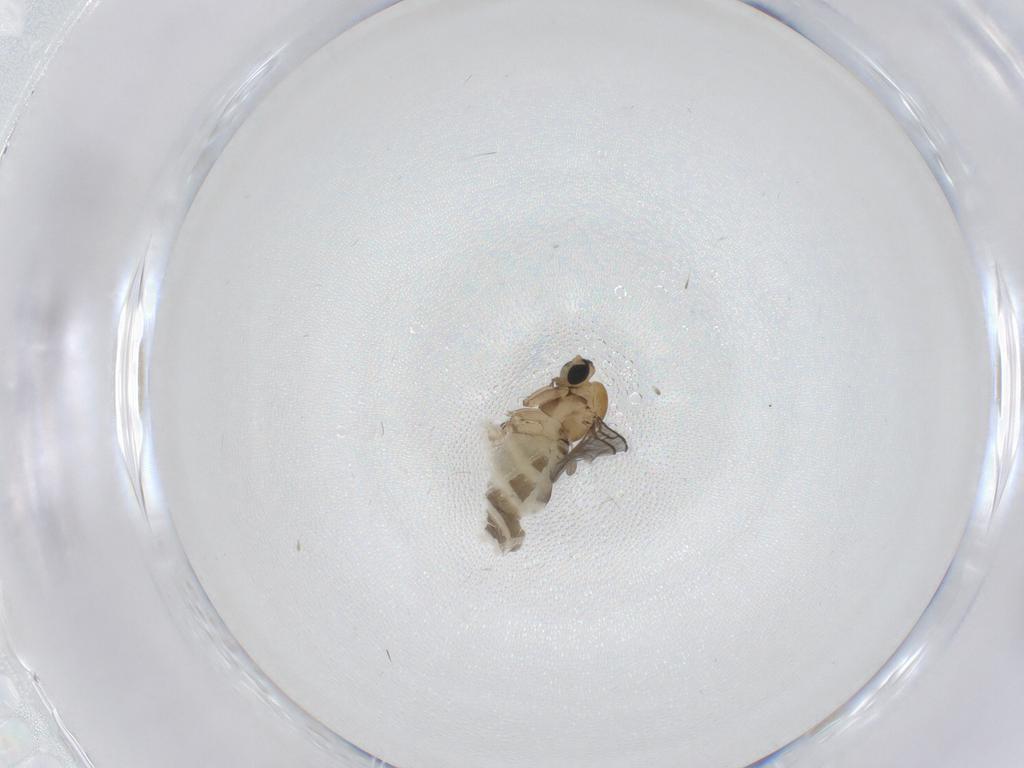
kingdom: Animalia
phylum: Arthropoda
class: Insecta
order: Diptera
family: Sciaridae
